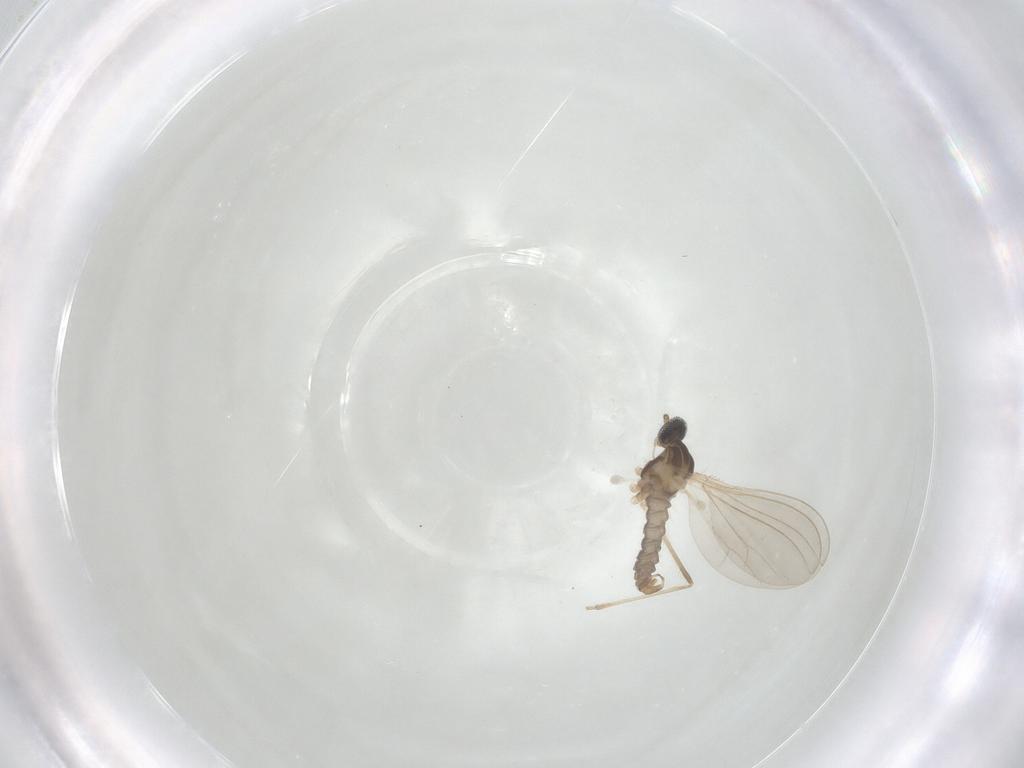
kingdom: Animalia
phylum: Arthropoda
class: Insecta
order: Diptera
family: Cecidomyiidae
